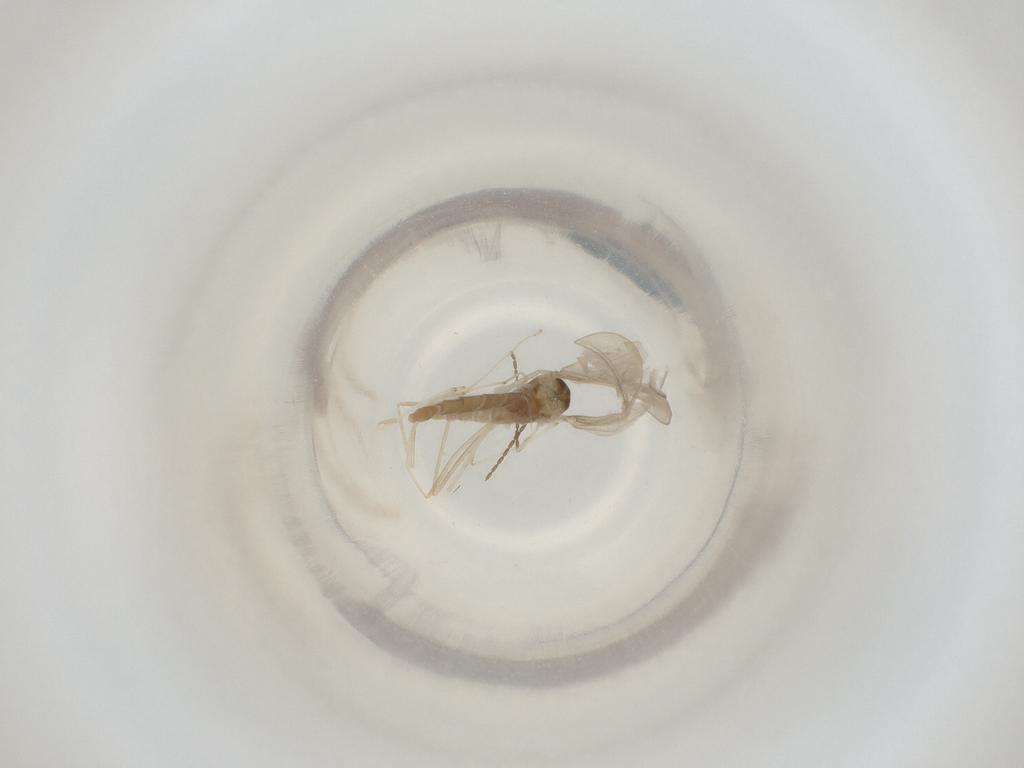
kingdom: Animalia
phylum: Arthropoda
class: Insecta
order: Diptera
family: Cecidomyiidae
